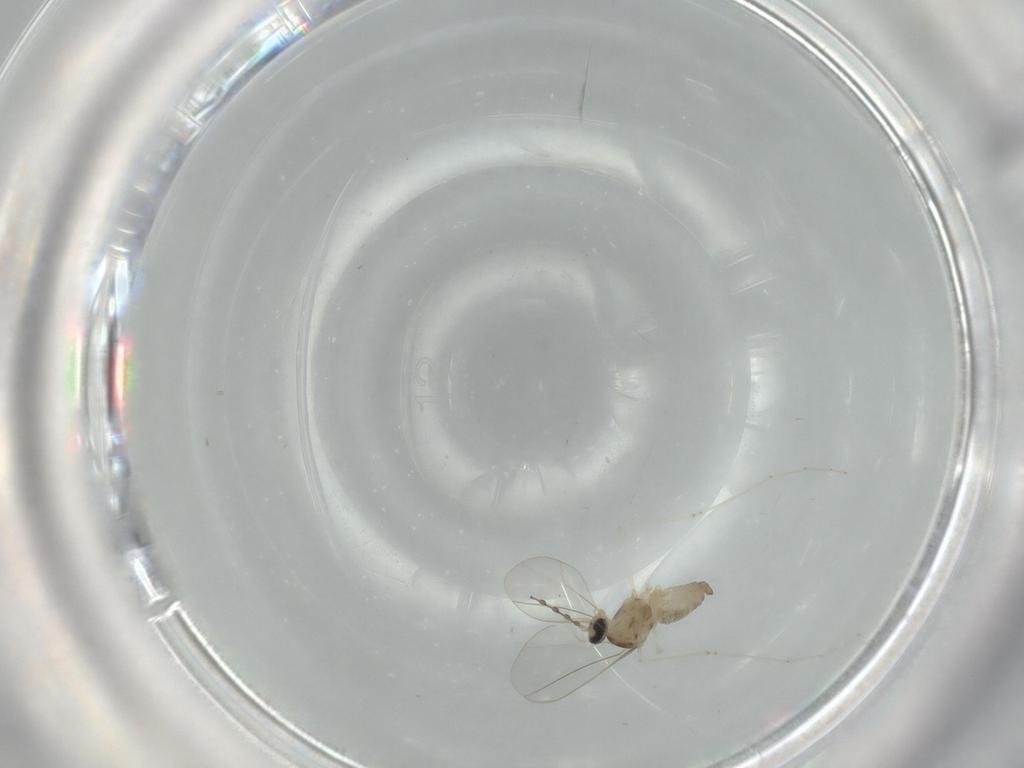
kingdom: Animalia
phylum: Arthropoda
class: Insecta
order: Diptera
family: Cecidomyiidae
